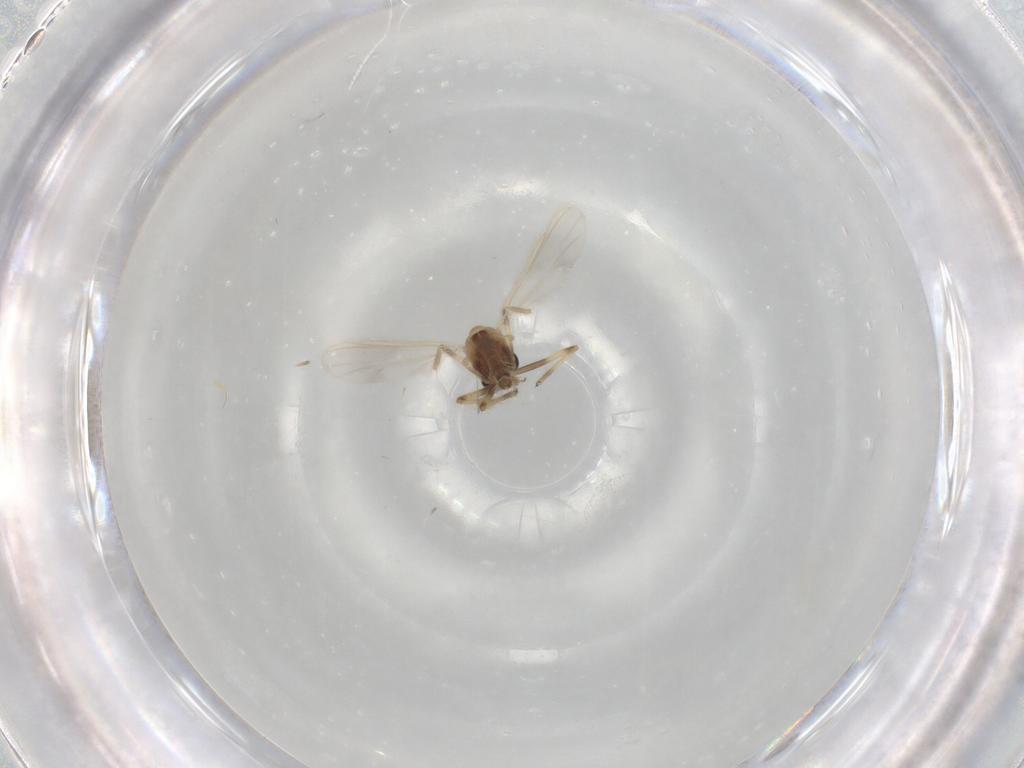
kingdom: Animalia
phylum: Arthropoda
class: Insecta
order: Diptera
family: Chironomidae
